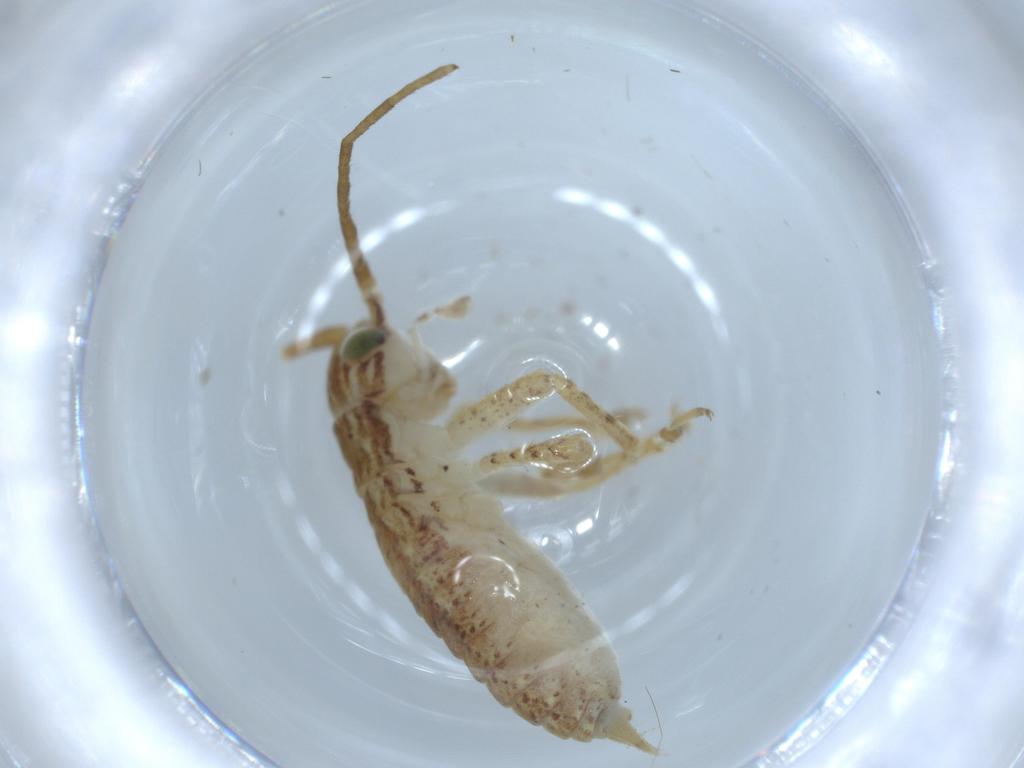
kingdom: Animalia
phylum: Arthropoda
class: Insecta
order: Orthoptera
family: Gryllidae
